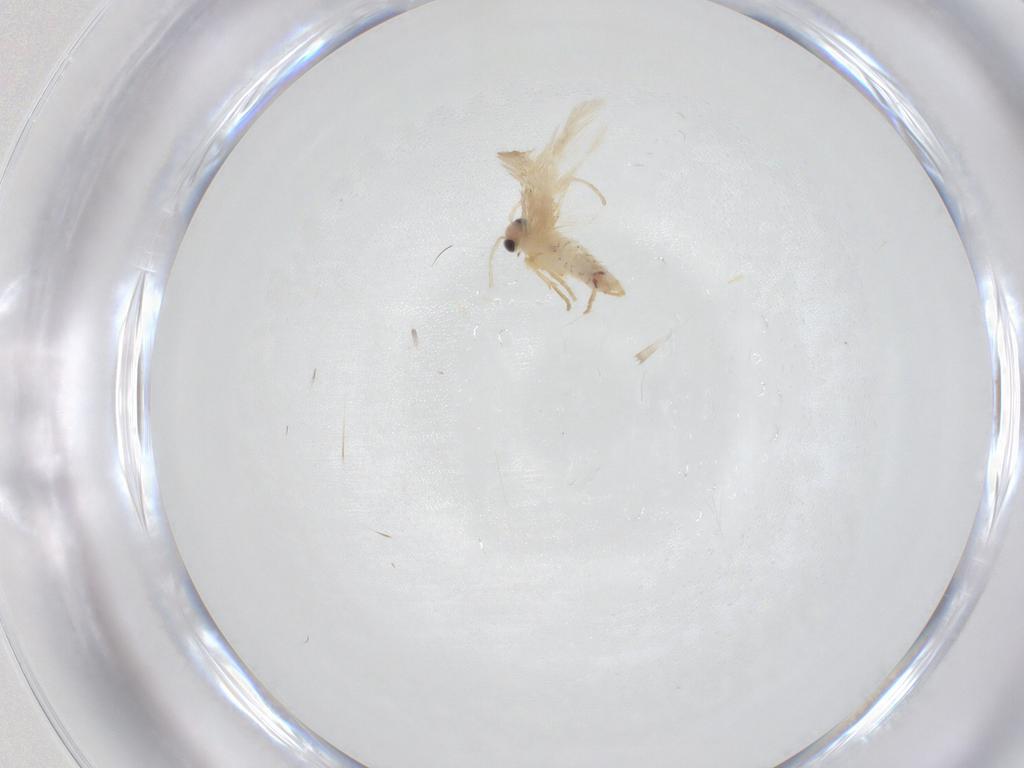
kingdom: Animalia
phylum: Arthropoda
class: Insecta
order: Lepidoptera
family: Nepticulidae
